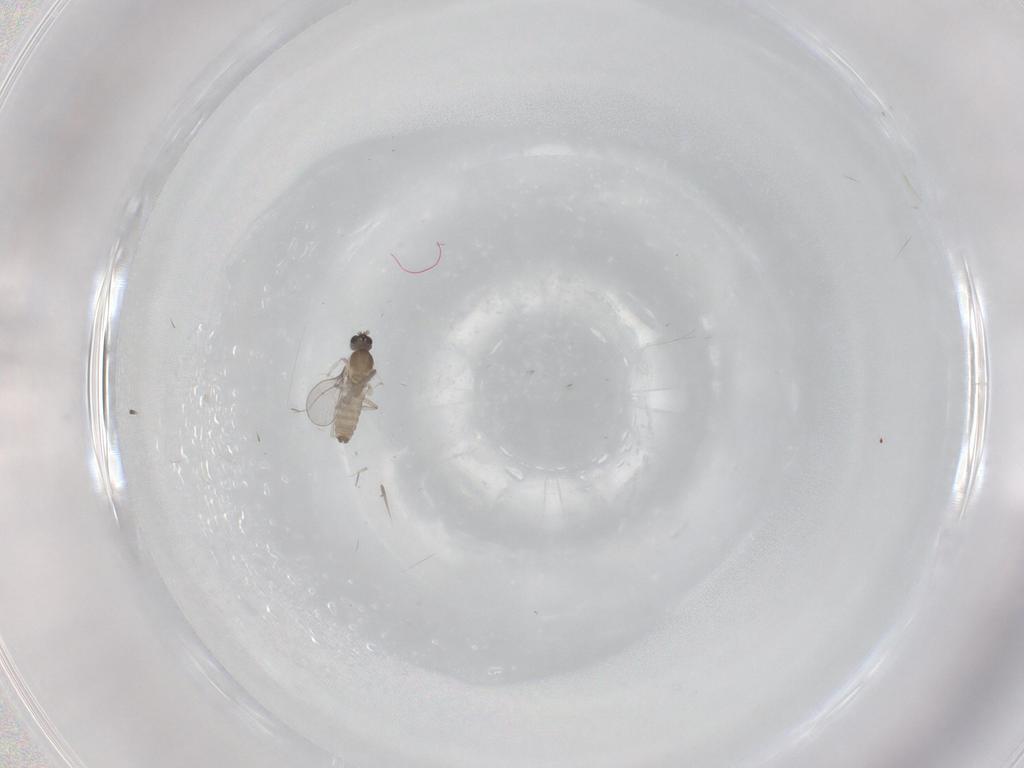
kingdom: Animalia
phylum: Arthropoda
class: Insecta
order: Diptera
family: Cecidomyiidae
